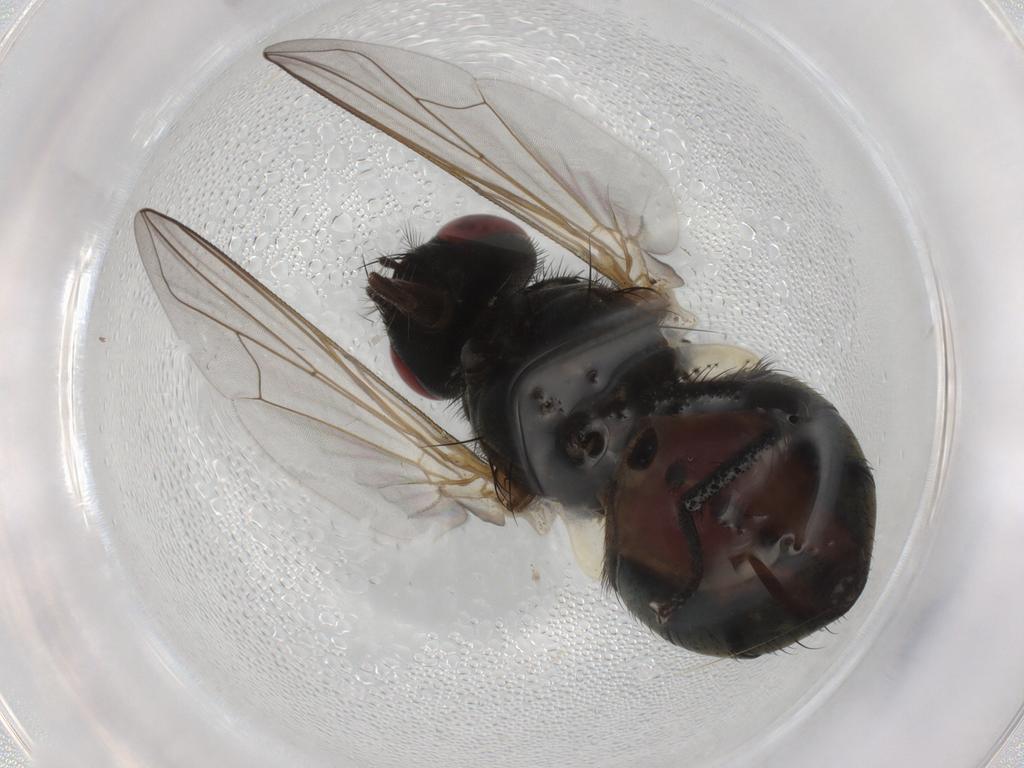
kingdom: Animalia
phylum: Arthropoda
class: Insecta
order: Diptera
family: Muscidae
